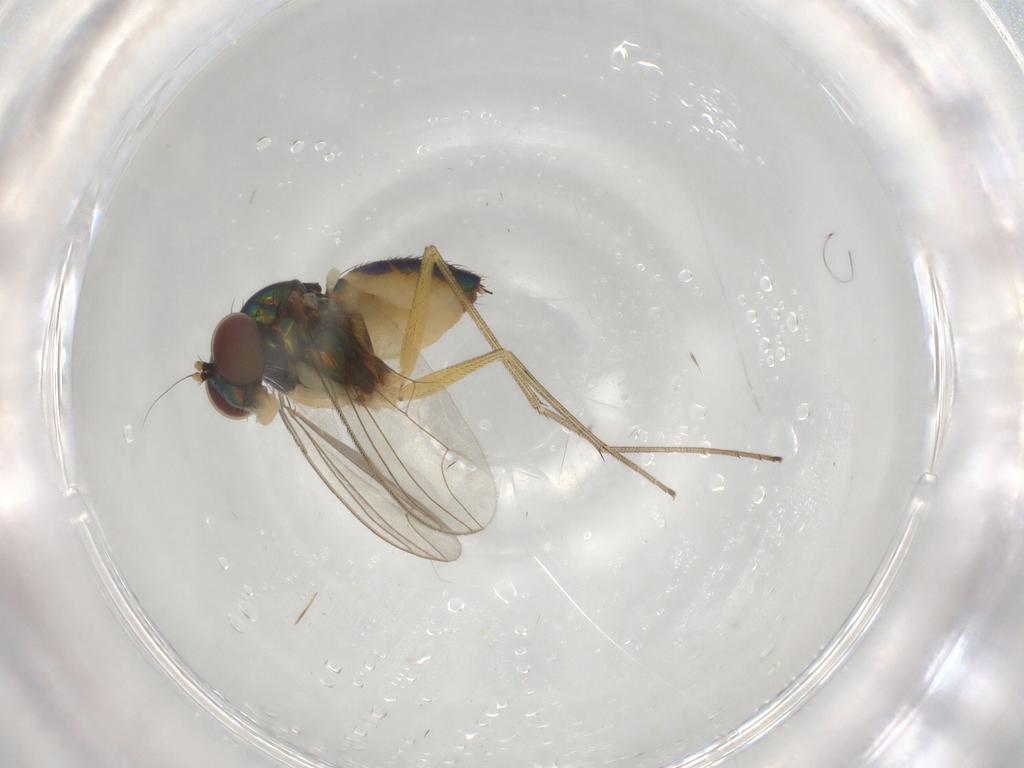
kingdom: Animalia
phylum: Arthropoda
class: Insecta
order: Diptera
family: Dolichopodidae
